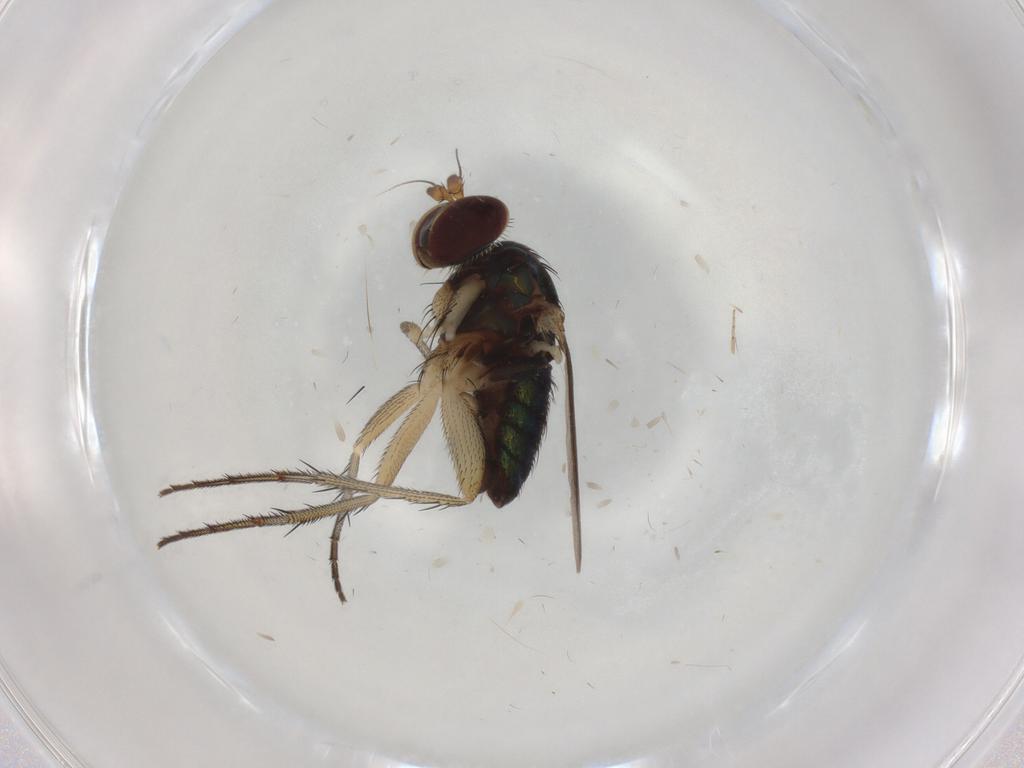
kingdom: Animalia
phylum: Arthropoda
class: Insecta
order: Diptera
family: Dolichopodidae
